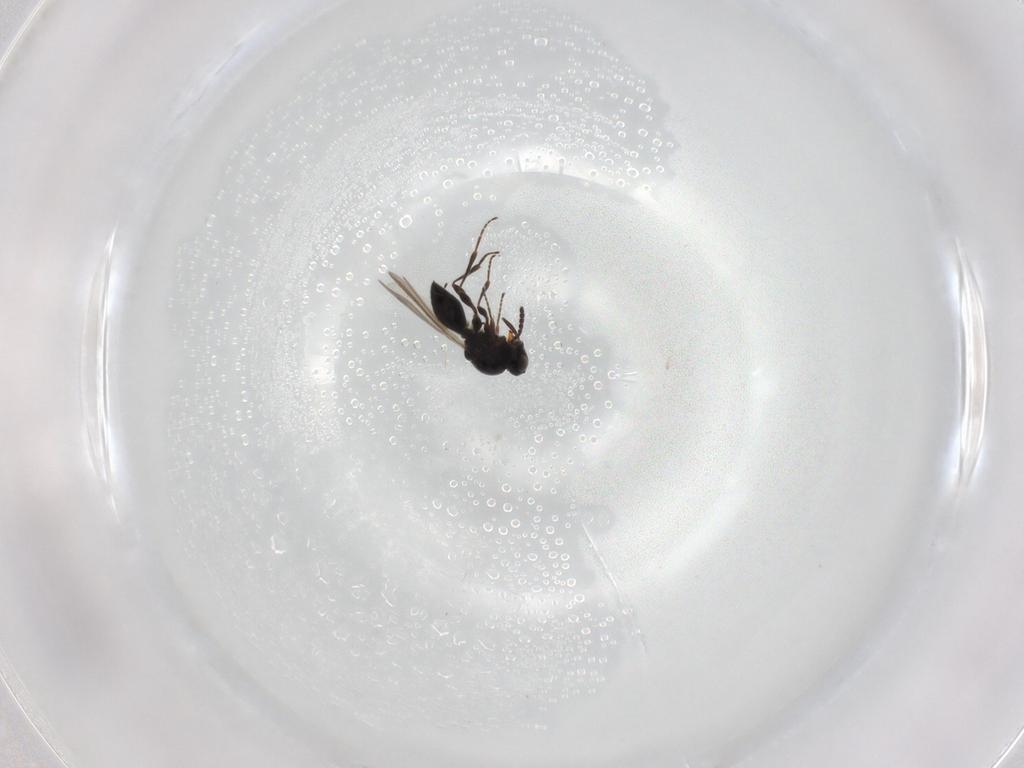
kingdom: Animalia
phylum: Arthropoda
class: Insecta
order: Hymenoptera
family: Platygastridae
